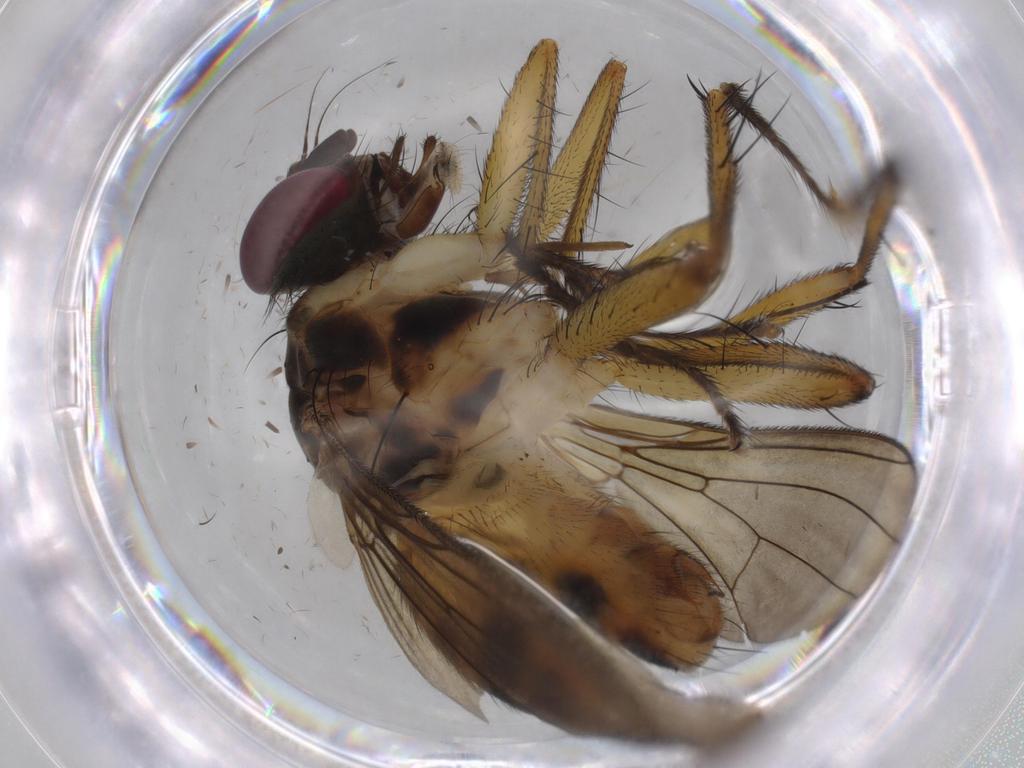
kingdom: Animalia
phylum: Arthropoda
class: Insecta
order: Diptera
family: Muscidae
